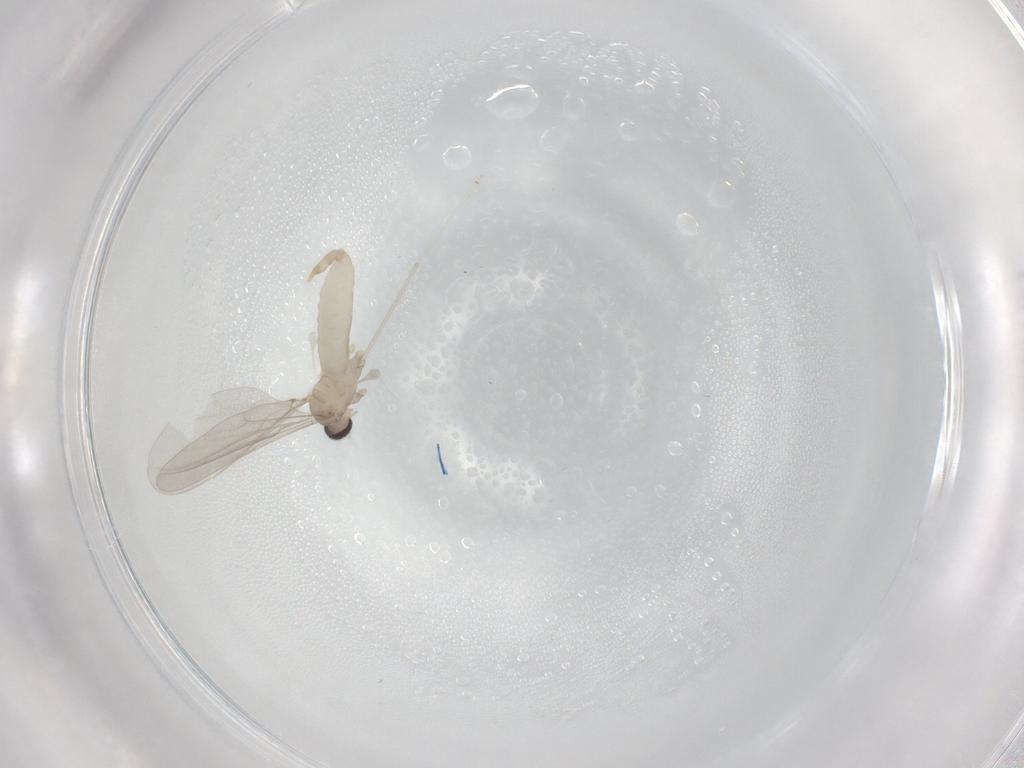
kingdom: Animalia
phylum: Arthropoda
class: Insecta
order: Diptera
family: Cecidomyiidae
